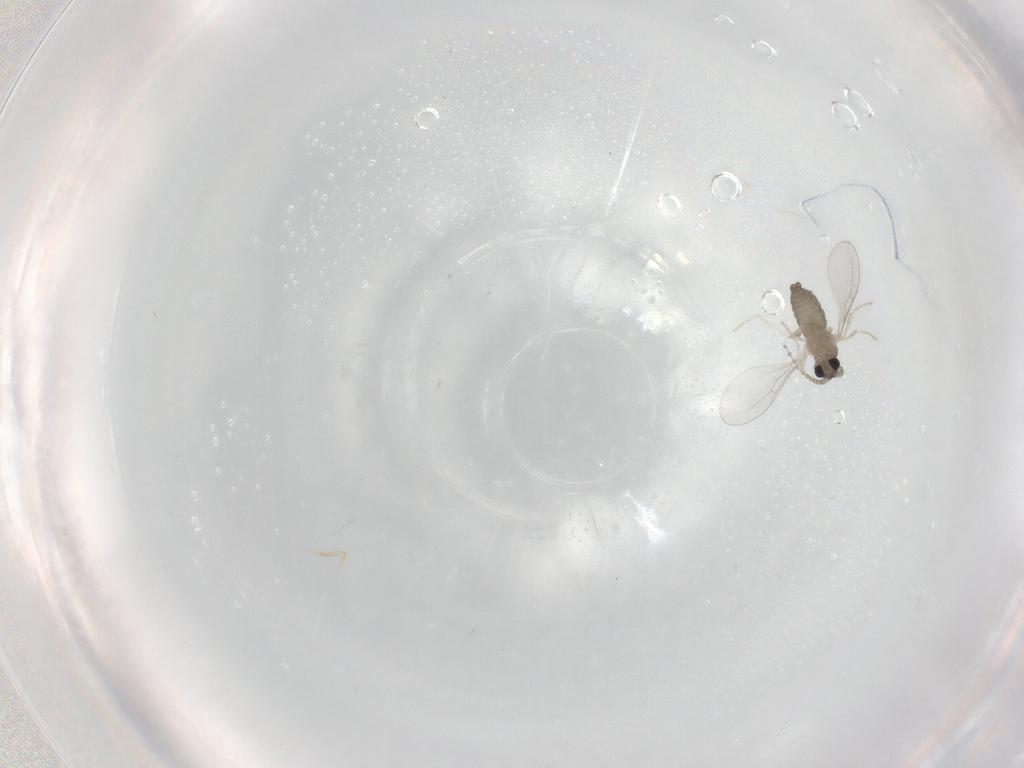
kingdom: Animalia
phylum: Arthropoda
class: Insecta
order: Diptera
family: Cecidomyiidae
